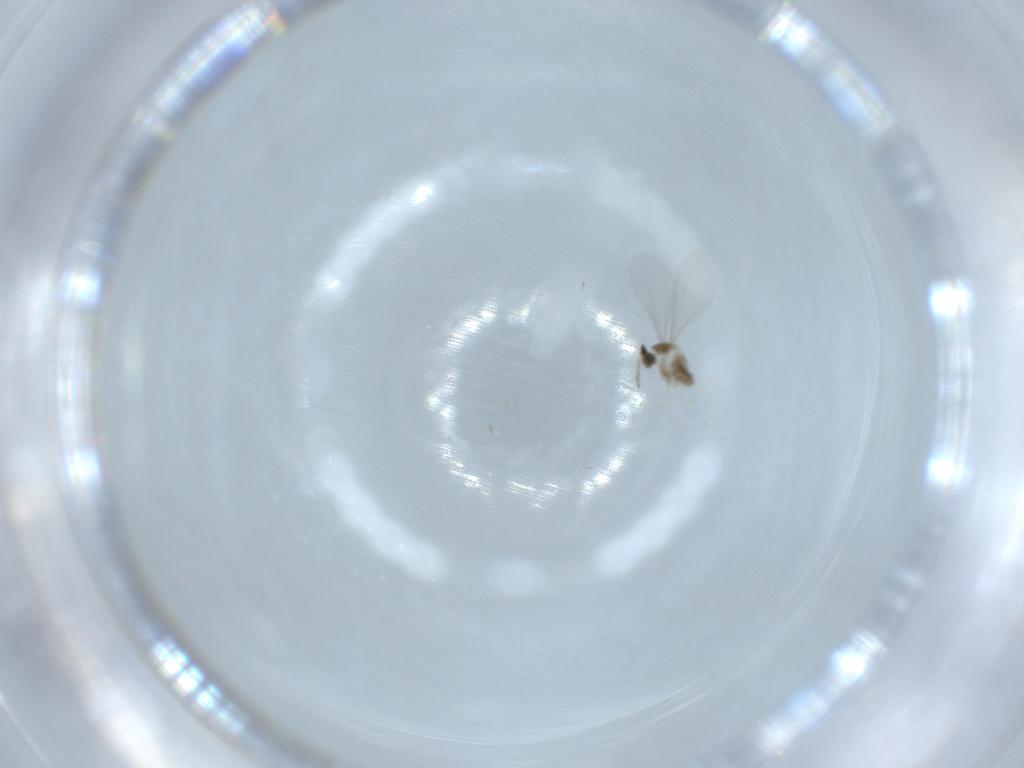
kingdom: Animalia
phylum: Arthropoda
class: Insecta
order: Diptera
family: Cecidomyiidae
